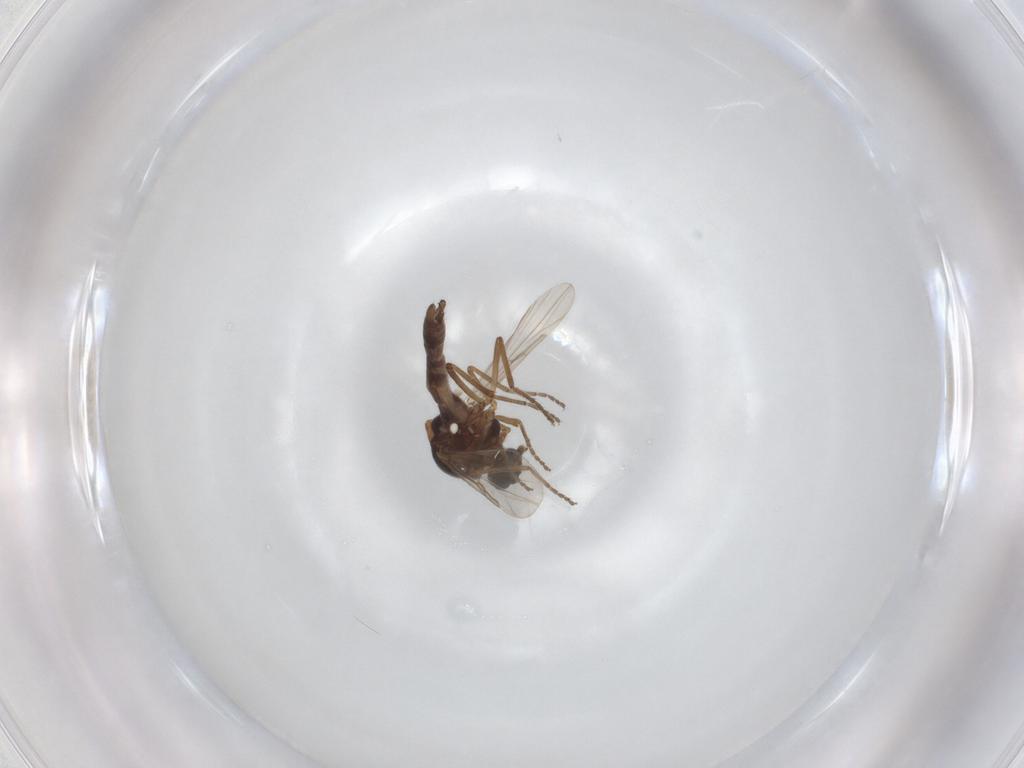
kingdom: Animalia
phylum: Arthropoda
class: Insecta
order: Diptera
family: Ceratopogonidae
